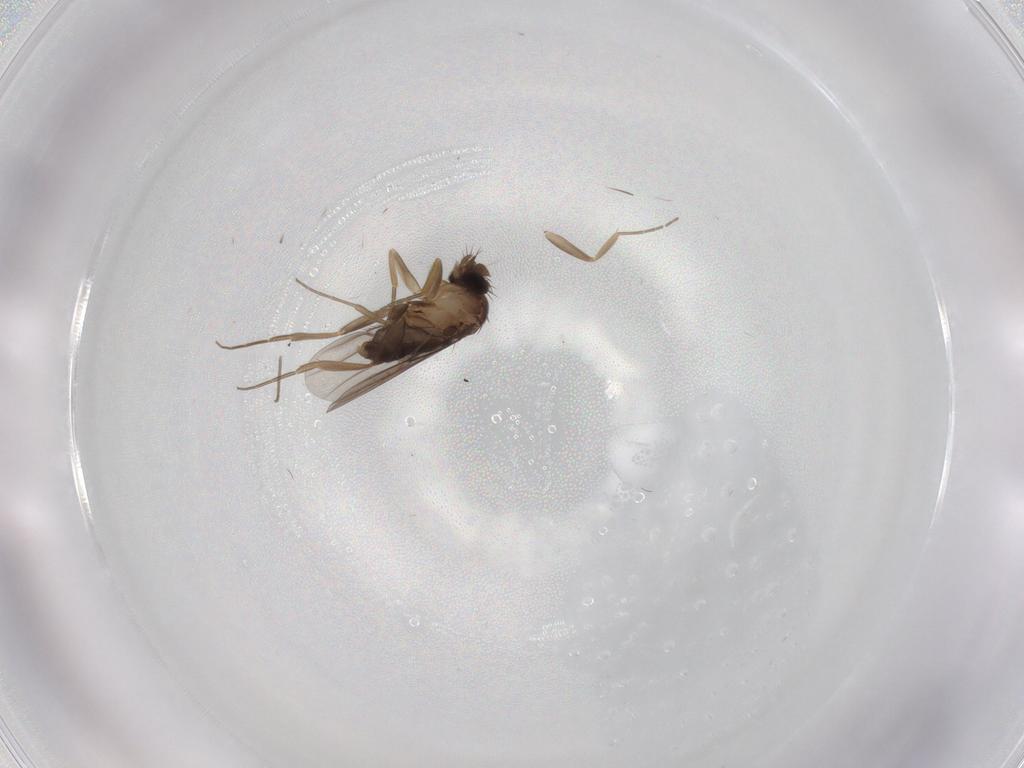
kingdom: Animalia
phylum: Arthropoda
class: Insecta
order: Diptera
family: Phoridae
